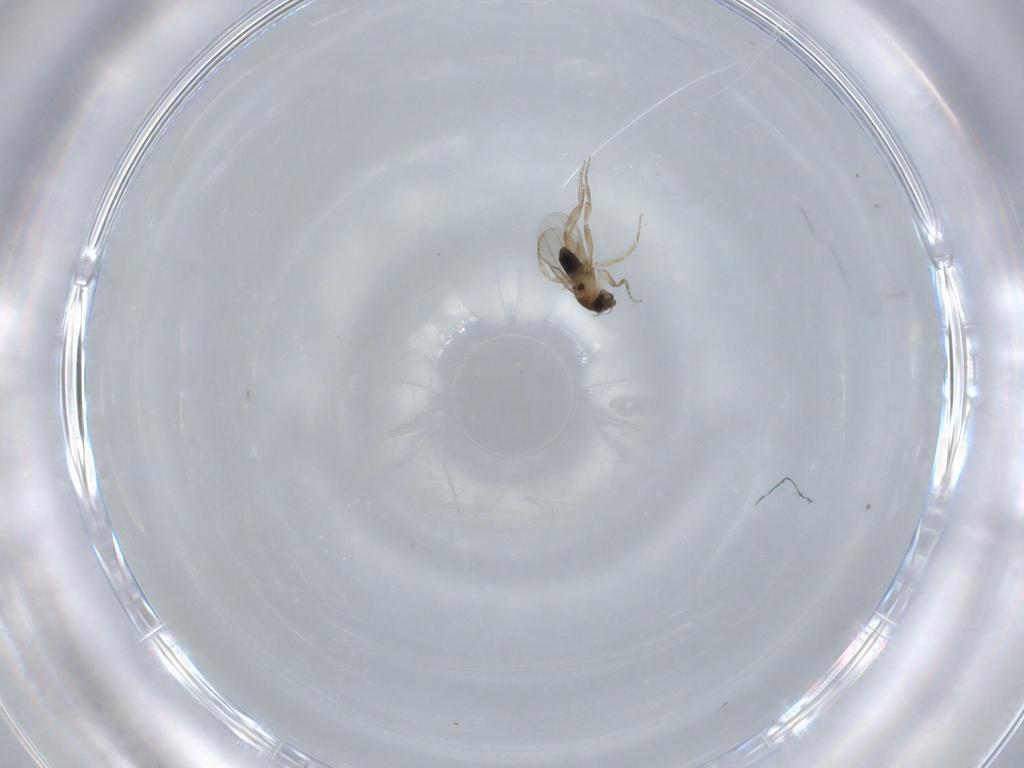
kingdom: Animalia
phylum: Arthropoda
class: Insecta
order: Diptera
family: Phoridae
